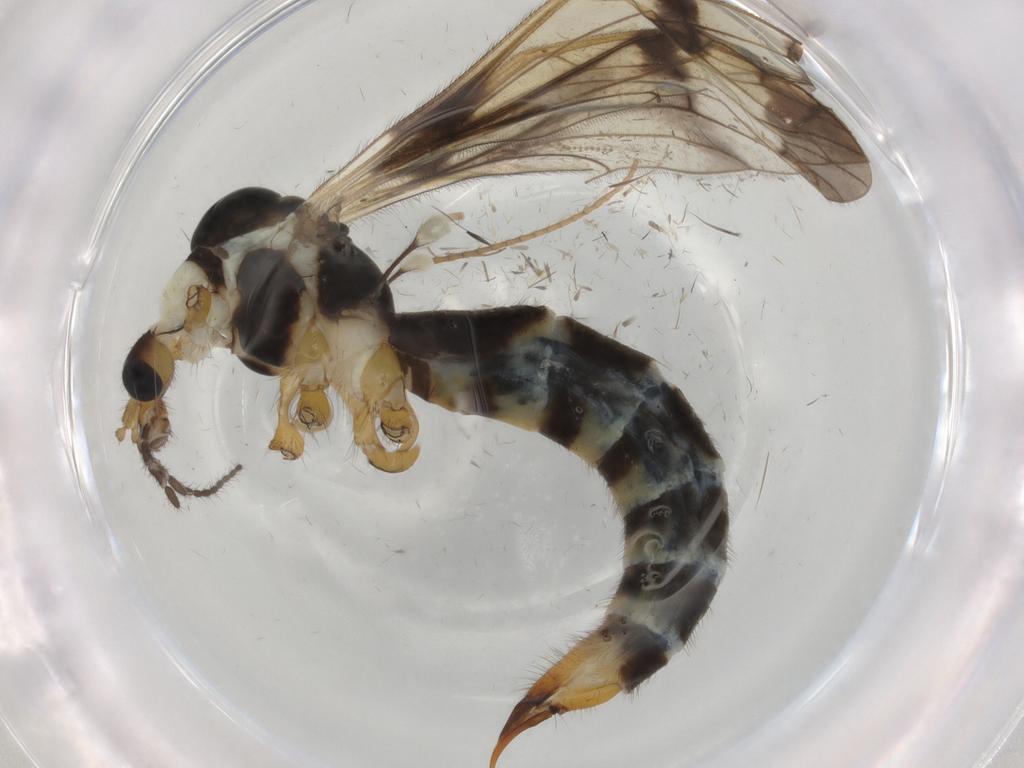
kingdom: Animalia
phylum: Arthropoda
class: Insecta
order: Diptera
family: Limoniidae
